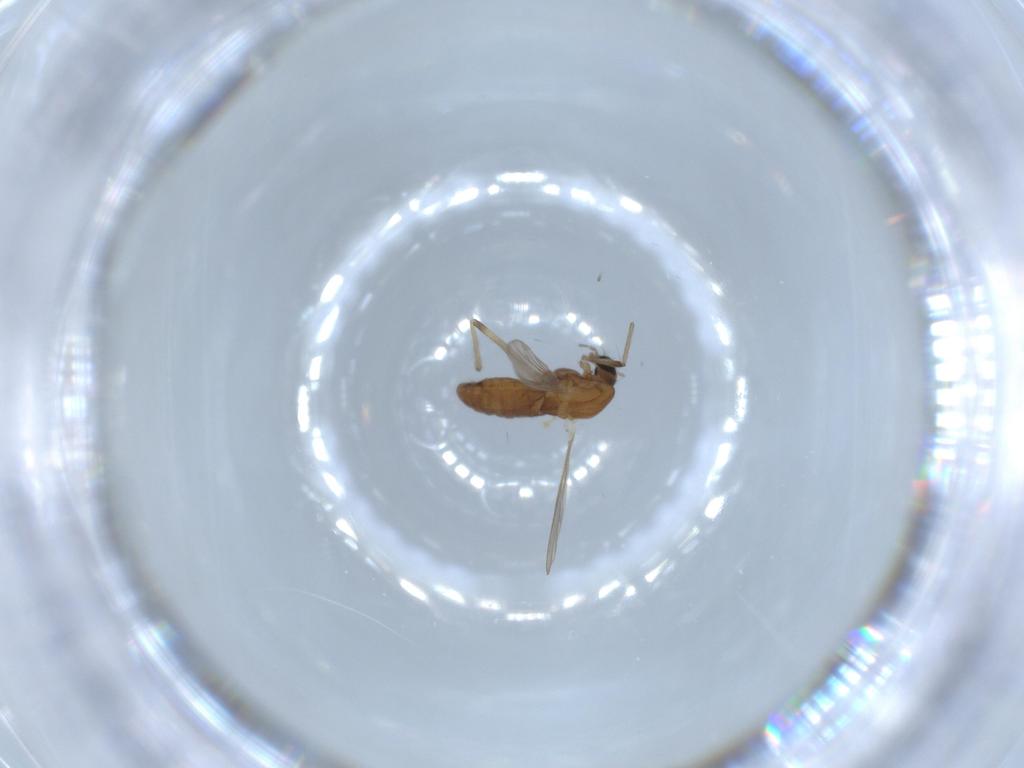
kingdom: Animalia
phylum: Arthropoda
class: Insecta
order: Diptera
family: Chironomidae
